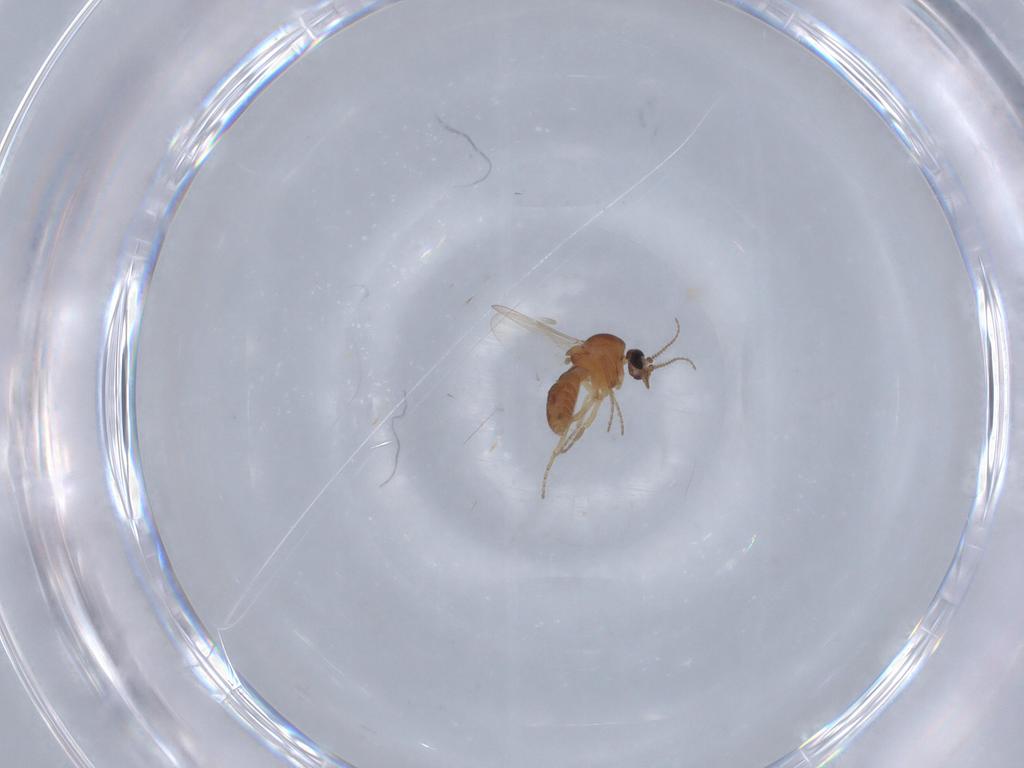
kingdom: Animalia
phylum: Arthropoda
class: Insecta
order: Diptera
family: Ceratopogonidae
